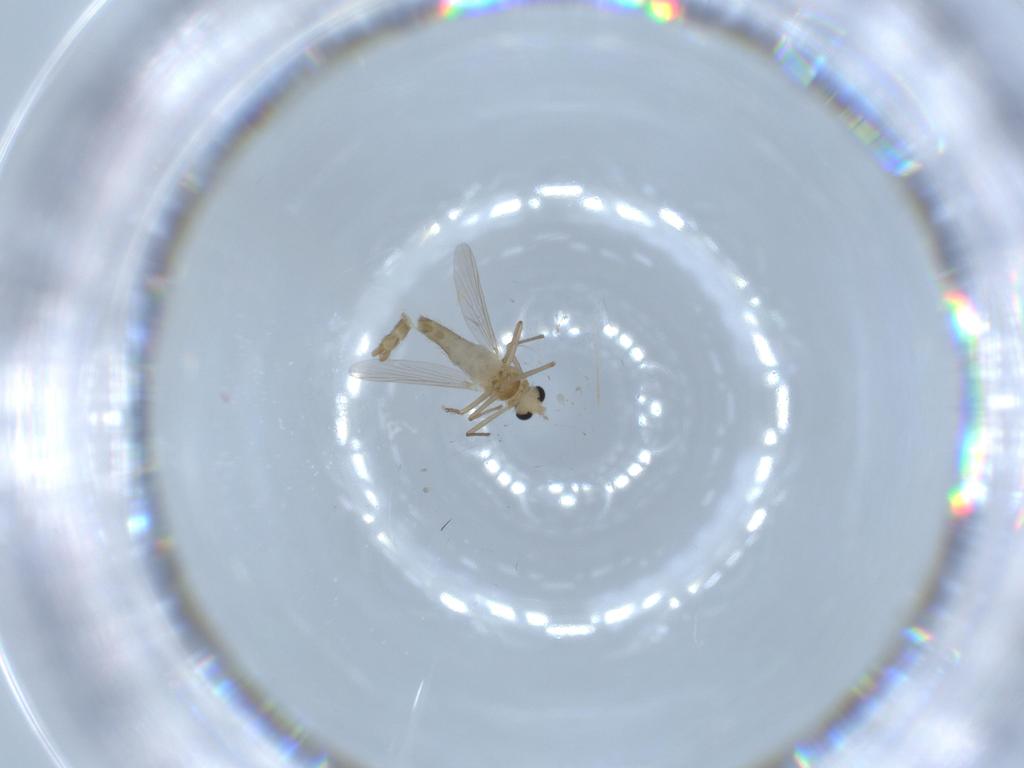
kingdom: Animalia
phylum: Arthropoda
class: Insecta
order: Diptera
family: Chironomidae
